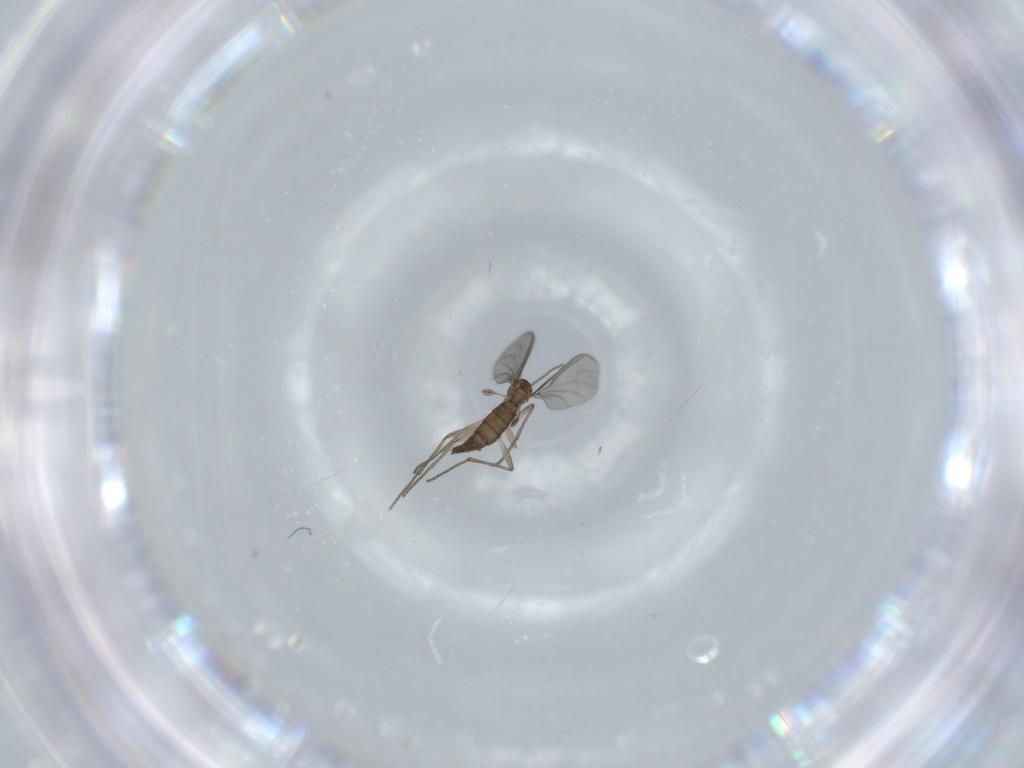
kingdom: Animalia
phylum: Arthropoda
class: Insecta
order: Diptera
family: Sciaridae
